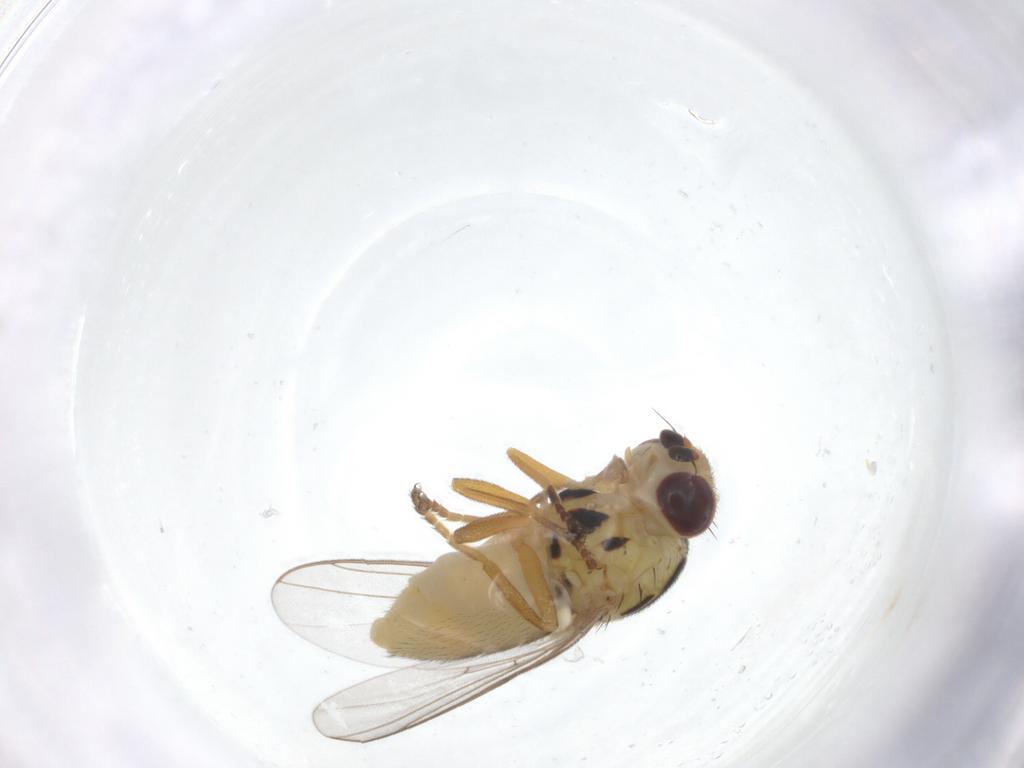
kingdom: Animalia
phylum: Arthropoda
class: Insecta
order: Diptera
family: Chloropidae
